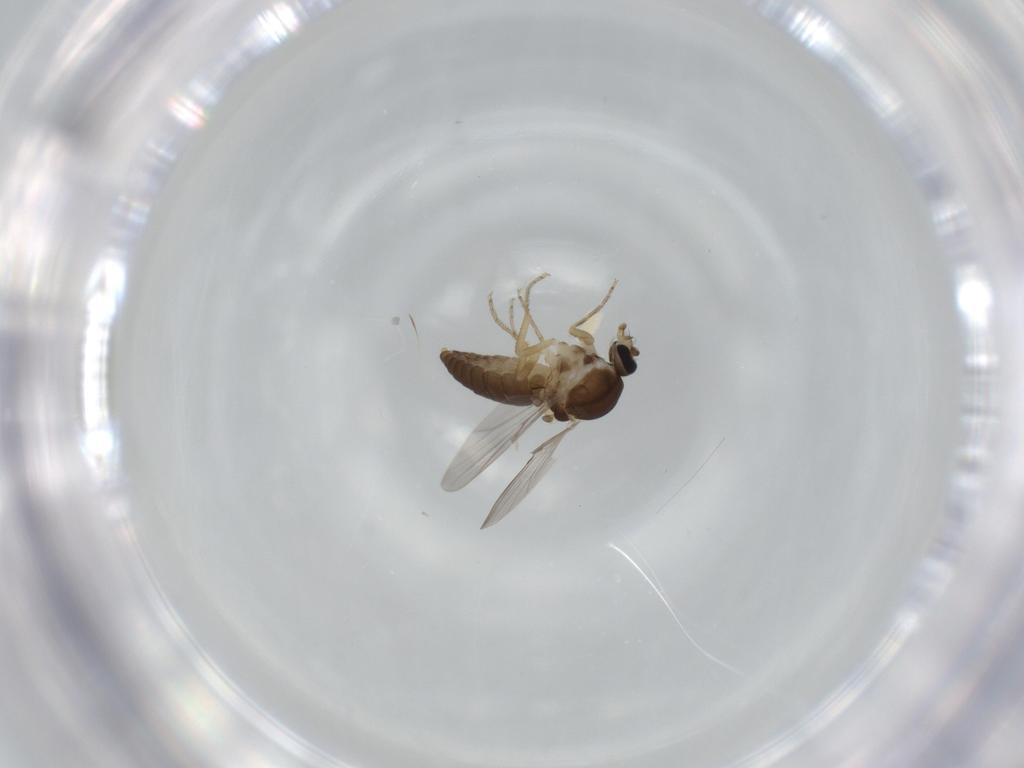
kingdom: Animalia
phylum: Arthropoda
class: Insecta
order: Diptera
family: Ceratopogonidae
